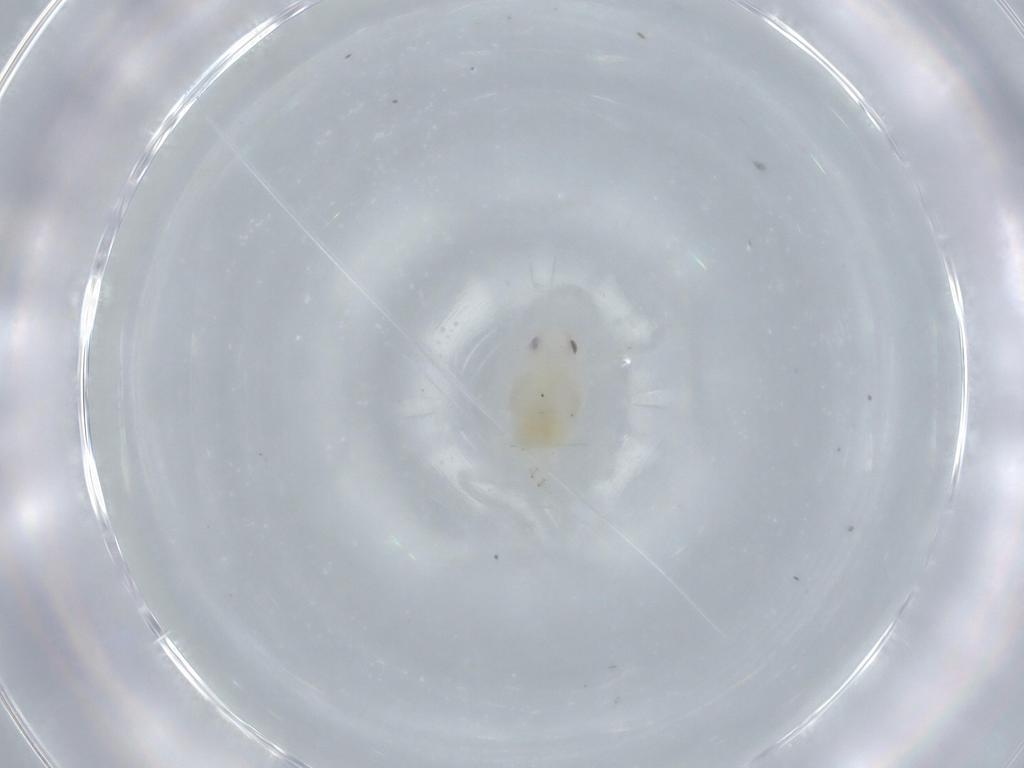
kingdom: Animalia
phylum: Arthropoda
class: Insecta
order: Hemiptera
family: Flatidae
